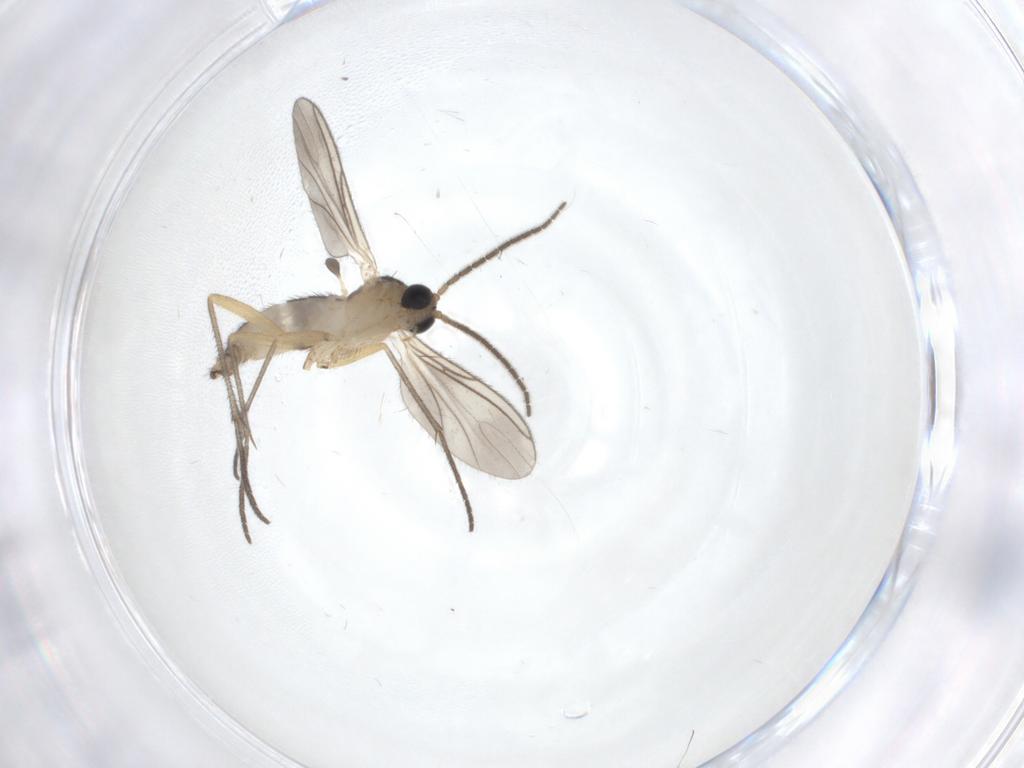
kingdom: Animalia
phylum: Arthropoda
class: Insecta
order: Diptera
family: Sciaridae
